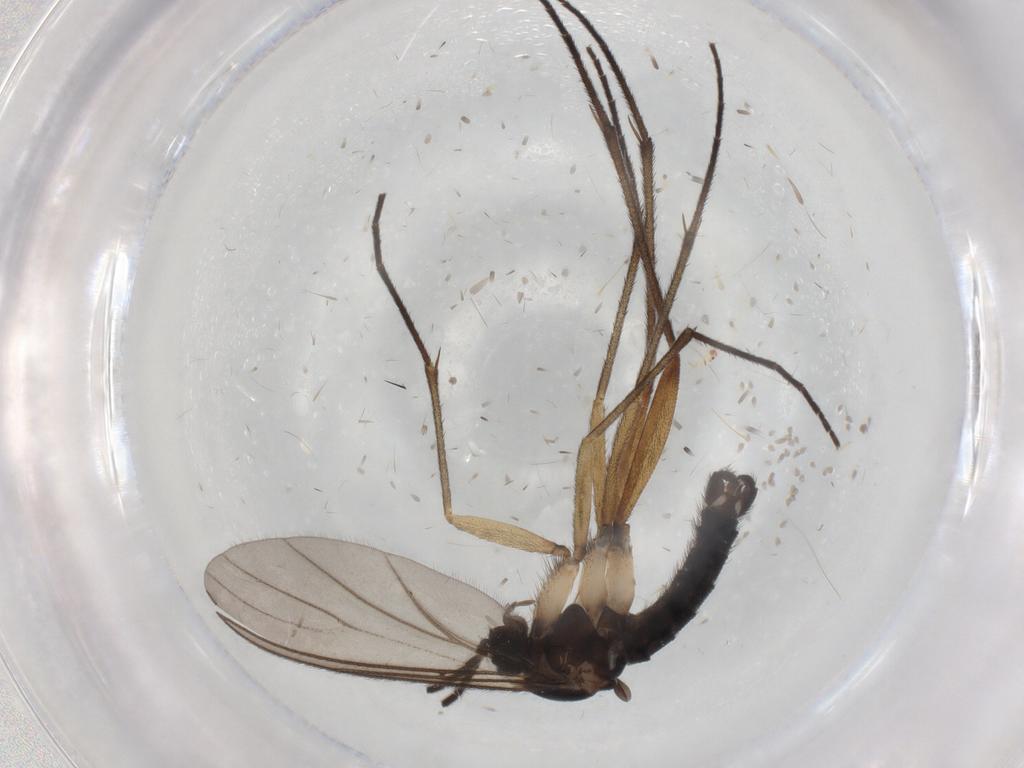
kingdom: Animalia
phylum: Arthropoda
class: Insecta
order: Diptera
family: Sciaridae
